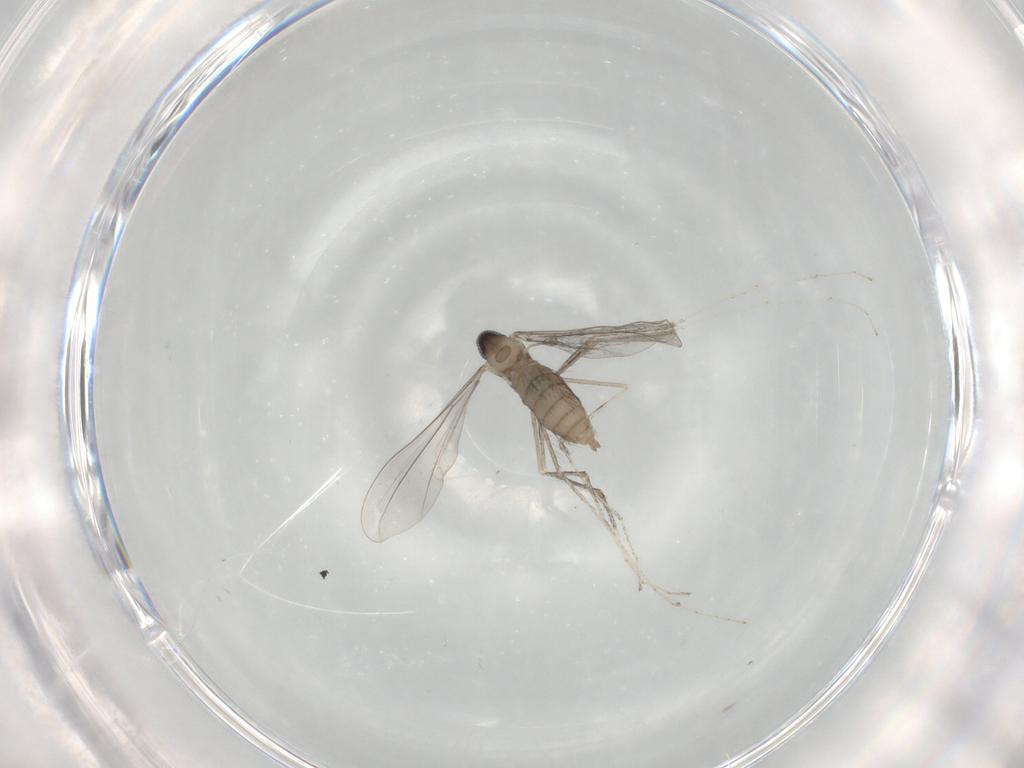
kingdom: Animalia
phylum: Arthropoda
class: Insecta
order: Diptera
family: Cecidomyiidae
